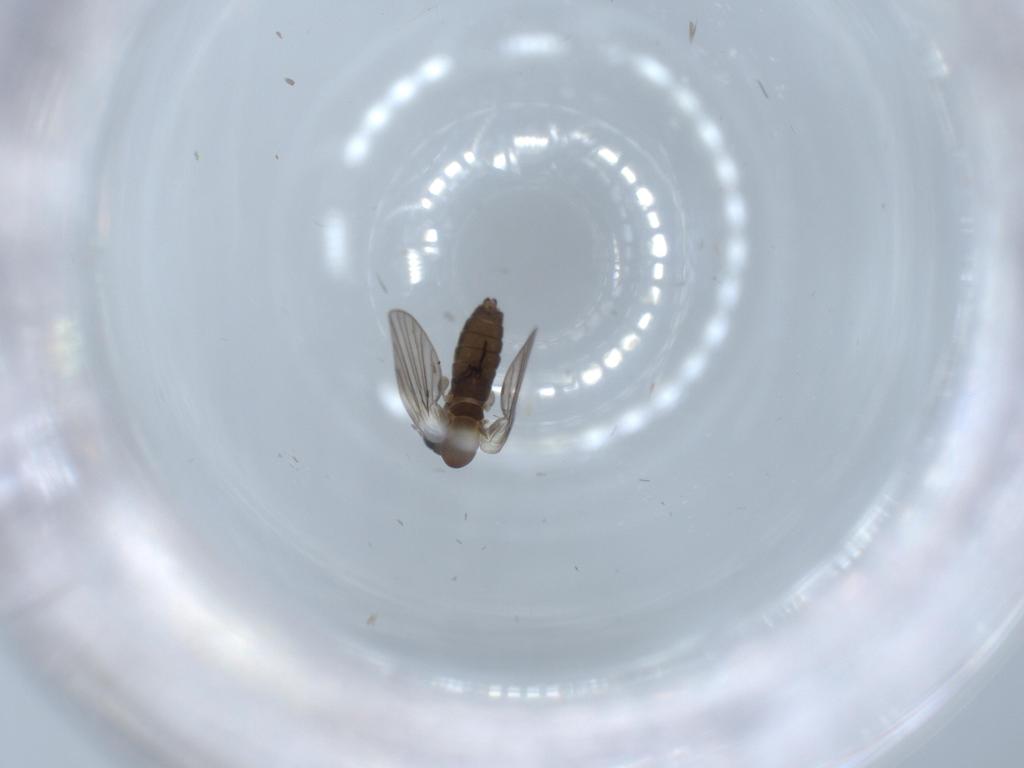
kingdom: Animalia
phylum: Arthropoda
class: Insecta
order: Diptera
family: Psychodidae
